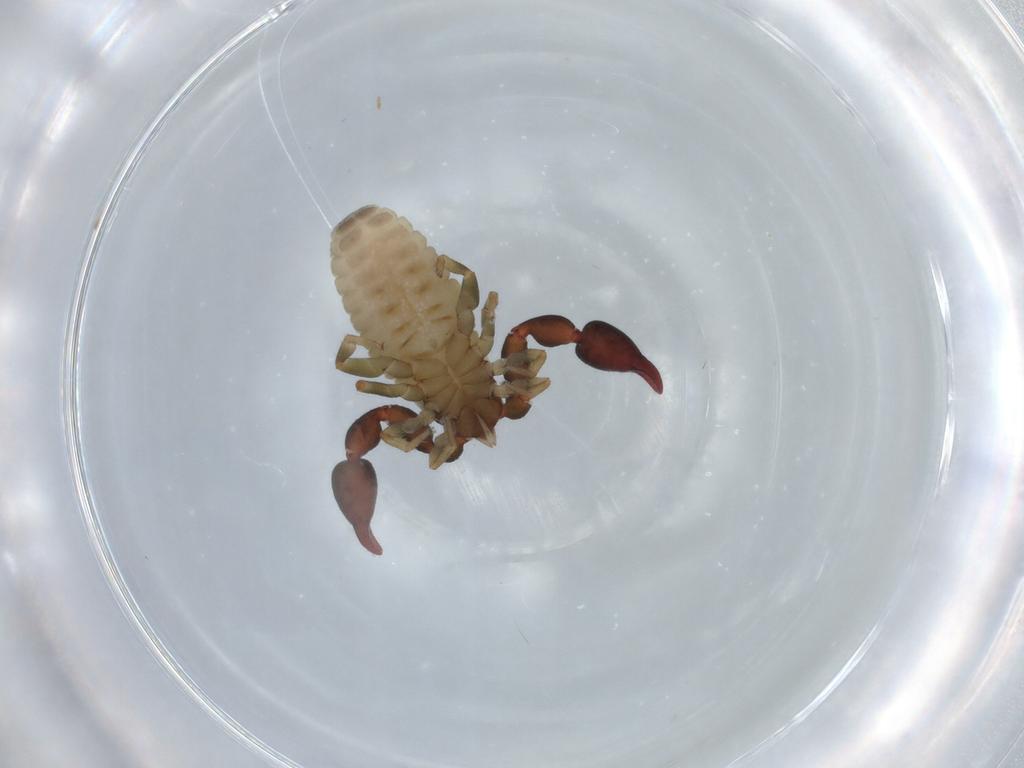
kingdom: Animalia
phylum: Arthropoda
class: Arachnida
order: Pseudoscorpiones
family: Chernetidae
